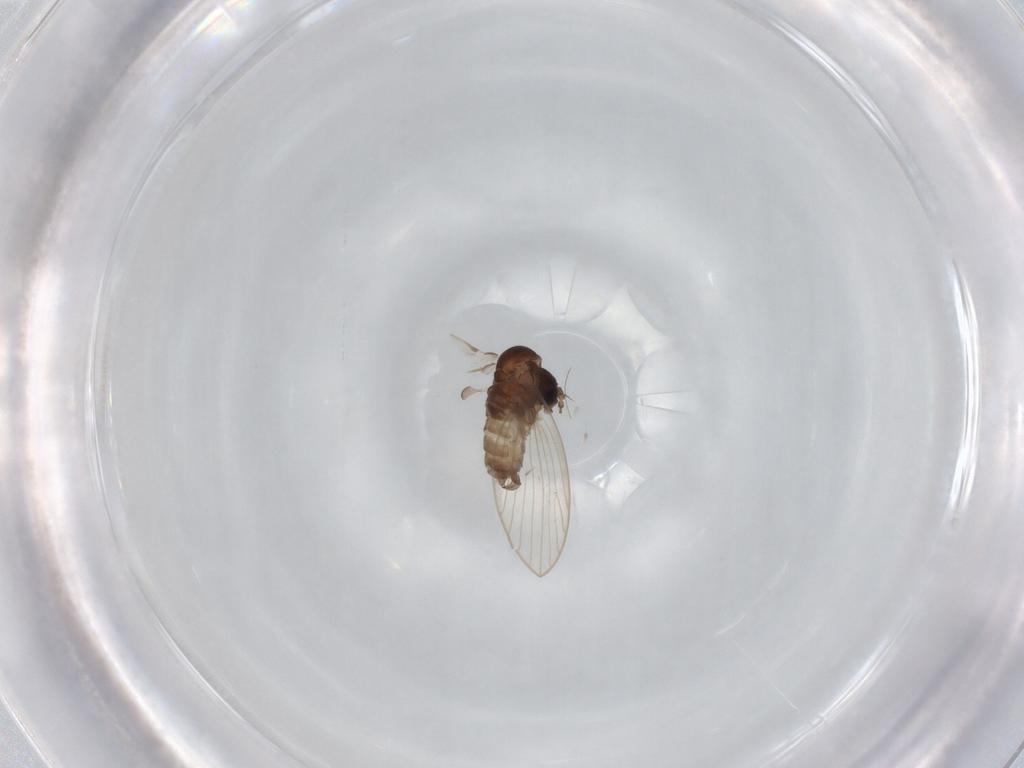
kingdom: Animalia
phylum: Arthropoda
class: Insecta
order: Diptera
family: Psychodidae
